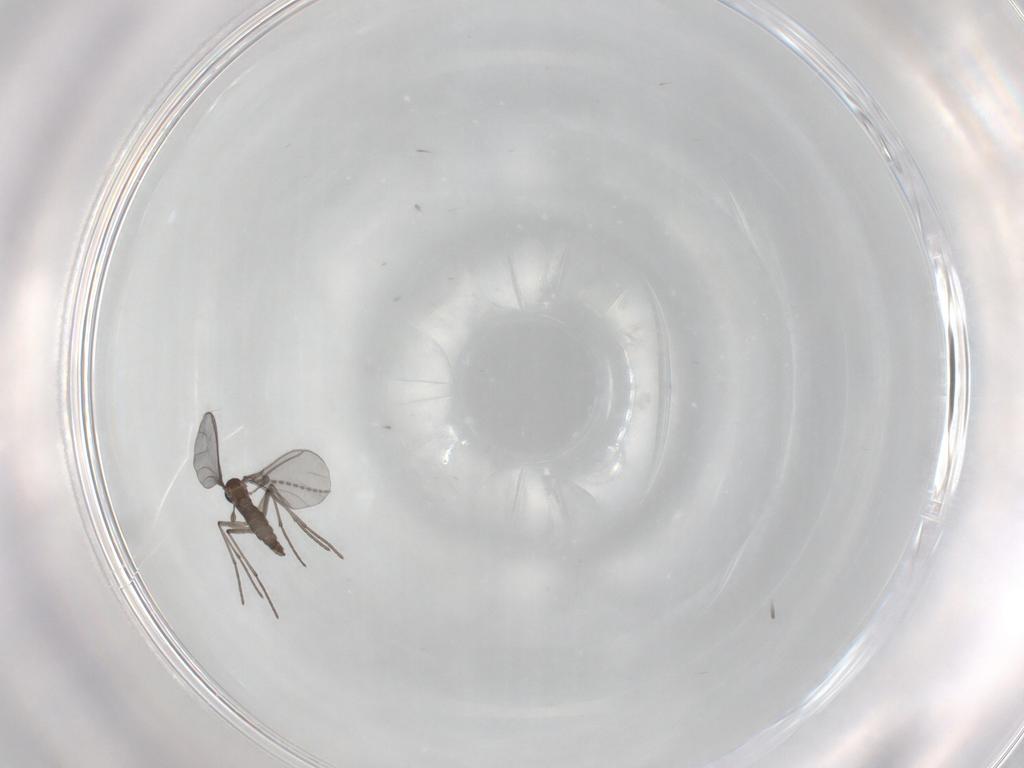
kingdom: Animalia
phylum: Arthropoda
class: Insecta
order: Diptera
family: Sciaridae
